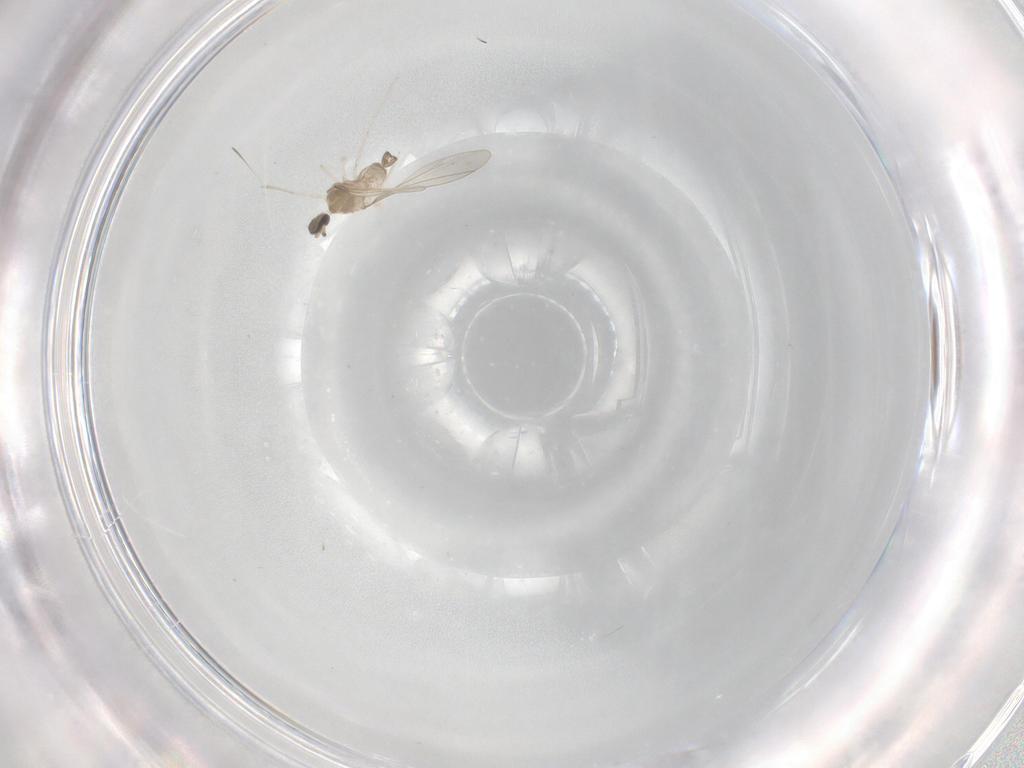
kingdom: Animalia
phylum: Arthropoda
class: Insecta
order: Diptera
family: Cecidomyiidae
